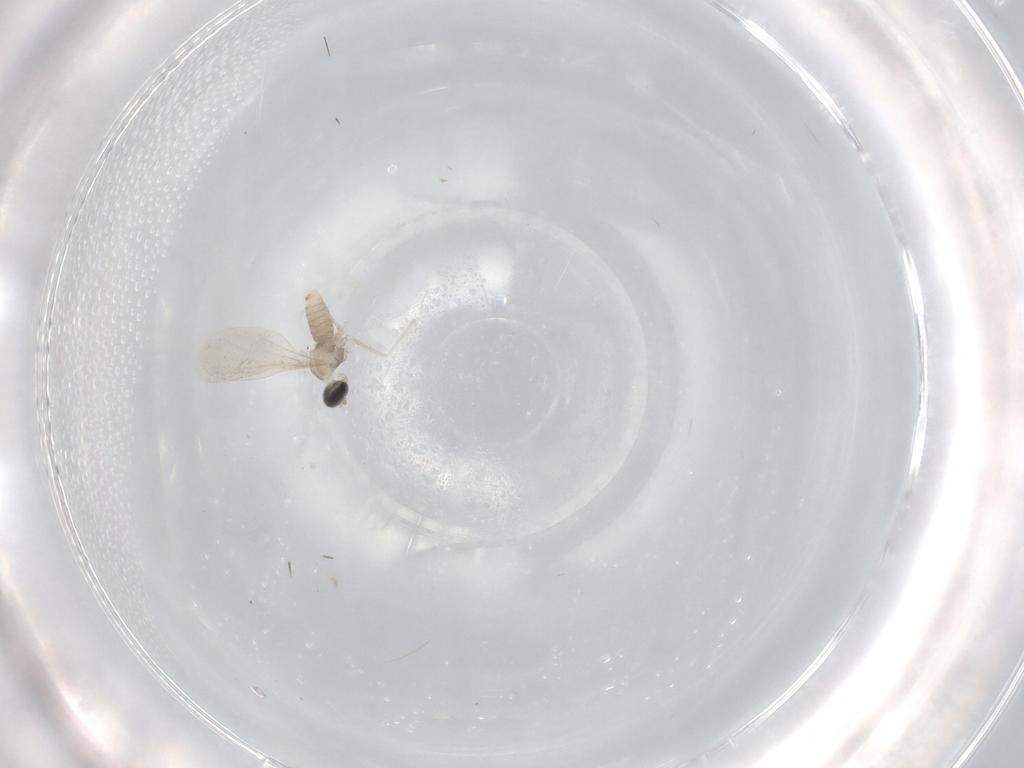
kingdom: Animalia
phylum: Arthropoda
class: Insecta
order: Diptera
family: Cecidomyiidae
